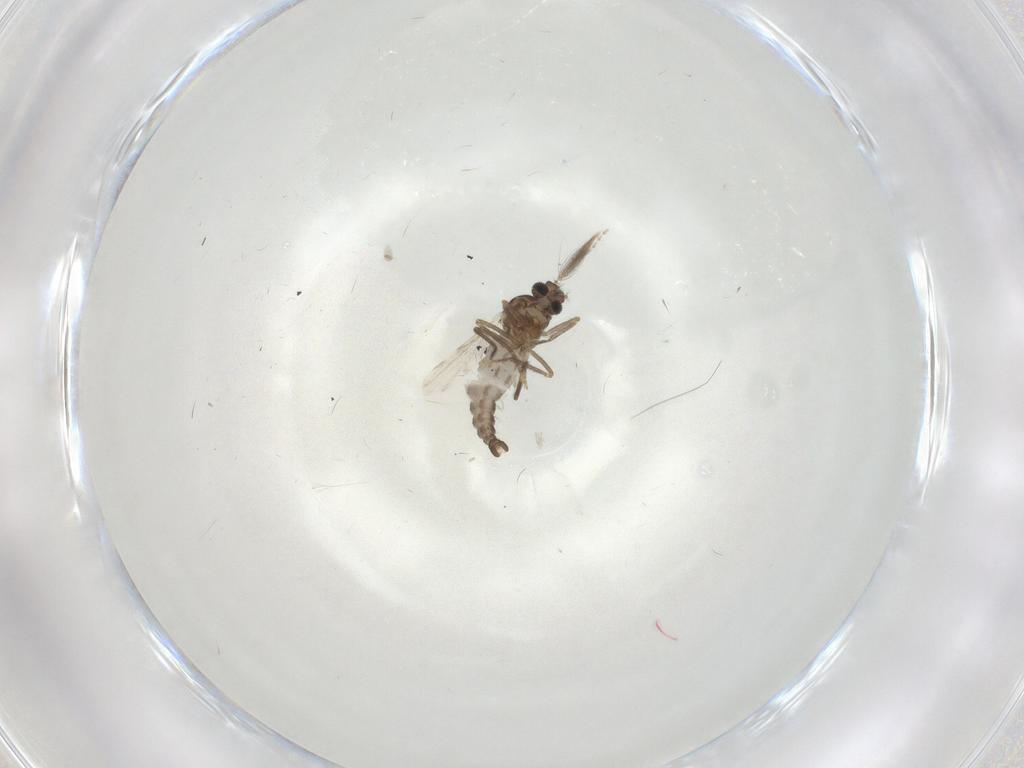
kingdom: Animalia
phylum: Arthropoda
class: Insecta
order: Diptera
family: Ceratopogonidae
